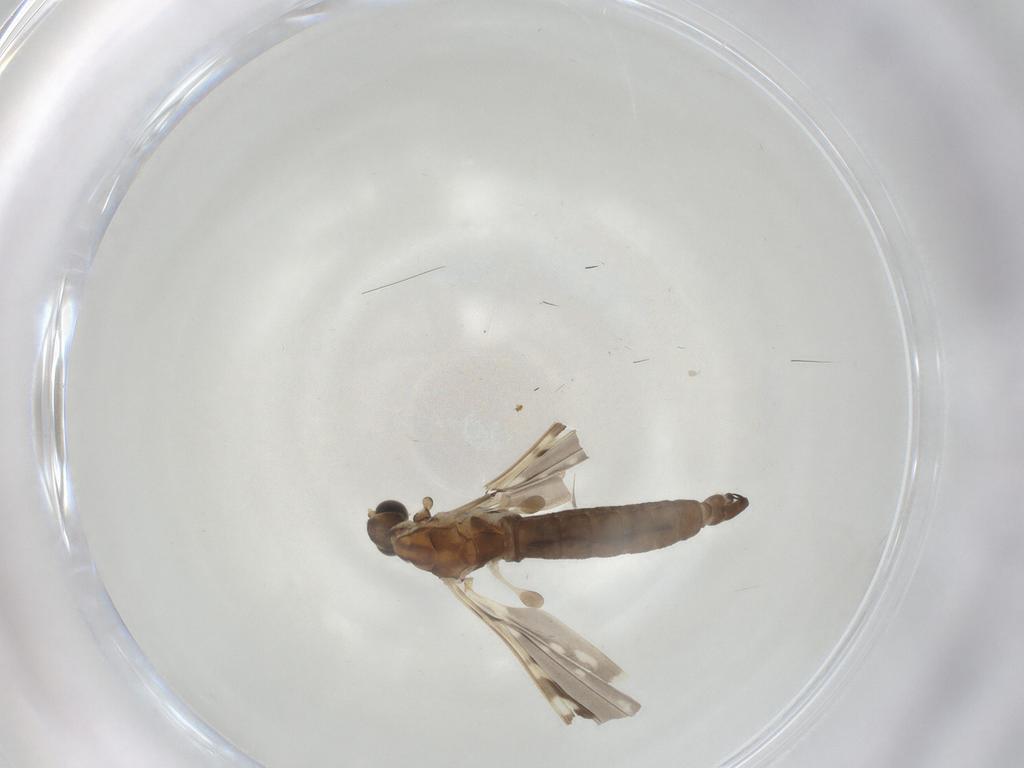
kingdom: Animalia
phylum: Arthropoda
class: Insecta
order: Diptera
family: Limoniidae
